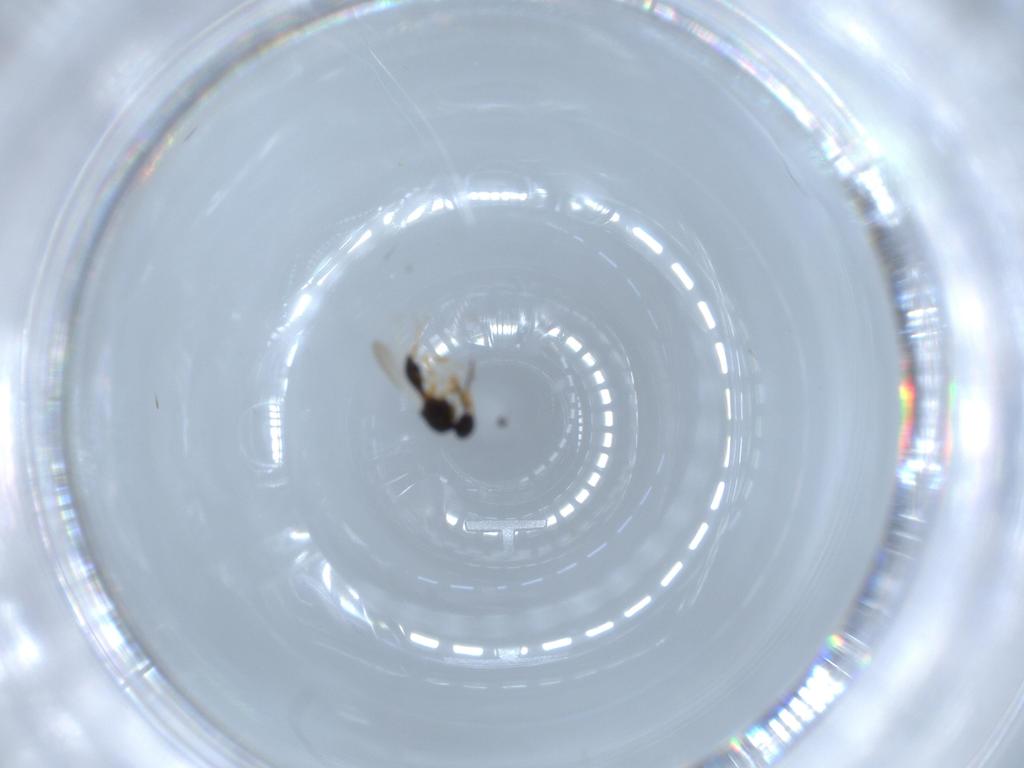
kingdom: Animalia
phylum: Arthropoda
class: Insecta
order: Hymenoptera
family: Platygastridae
